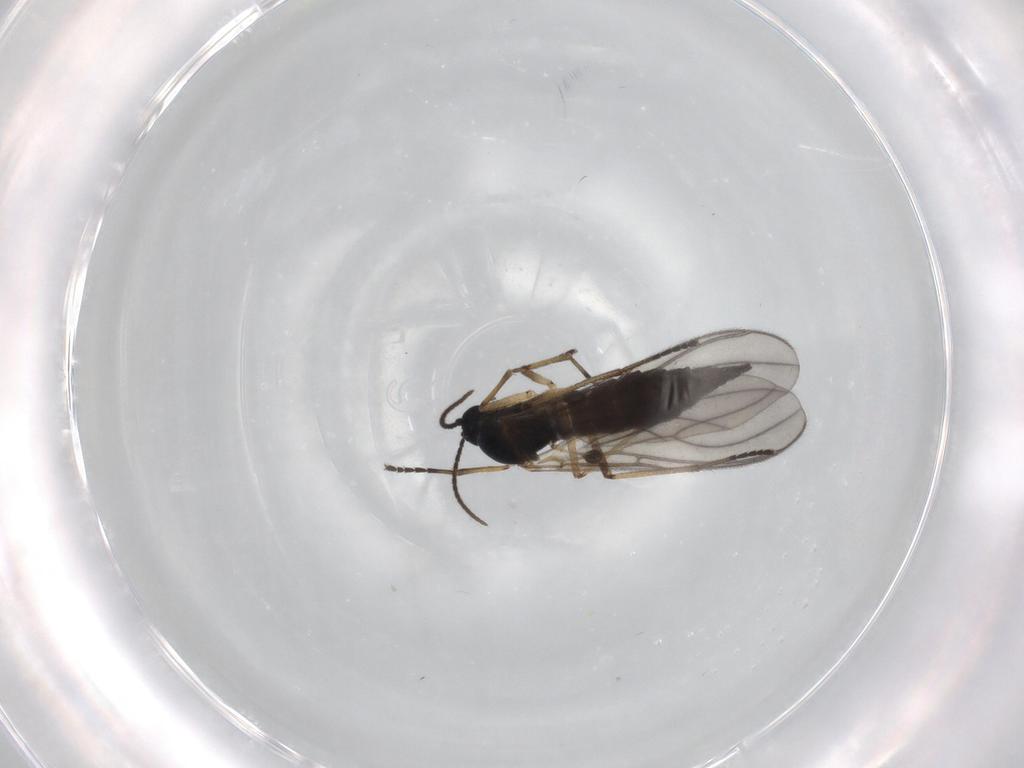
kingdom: Animalia
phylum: Arthropoda
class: Insecta
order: Diptera
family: Sciaridae
